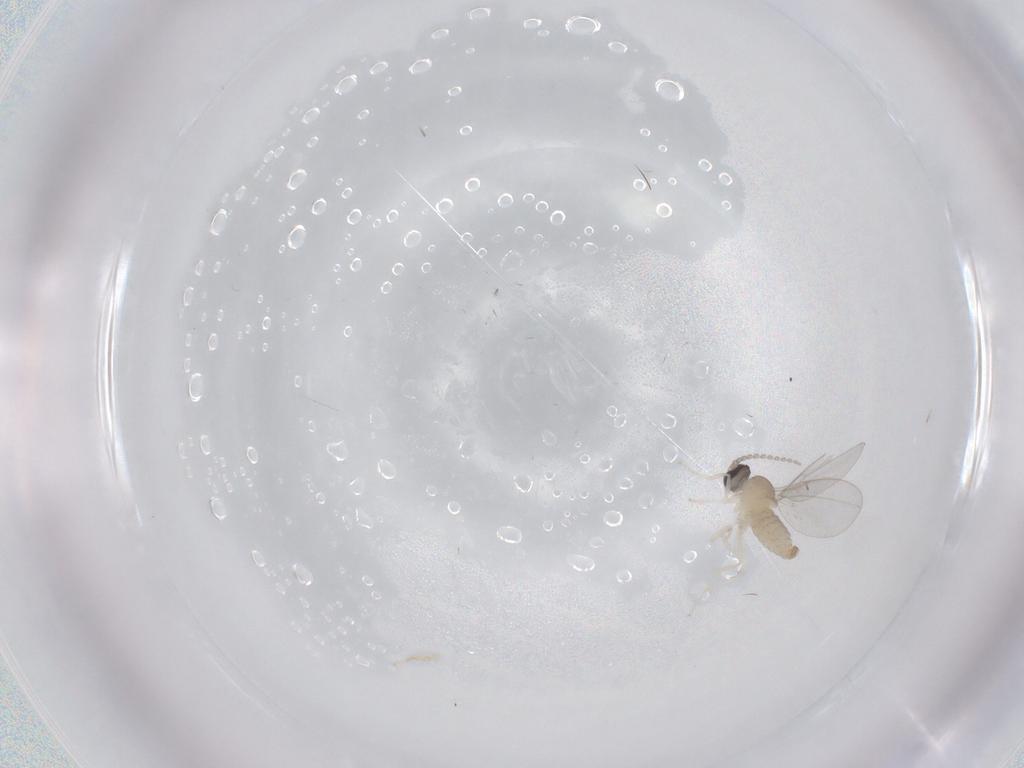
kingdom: Animalia
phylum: Arthropoda
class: Insecta
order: Diptera
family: Cecidomyiidae
